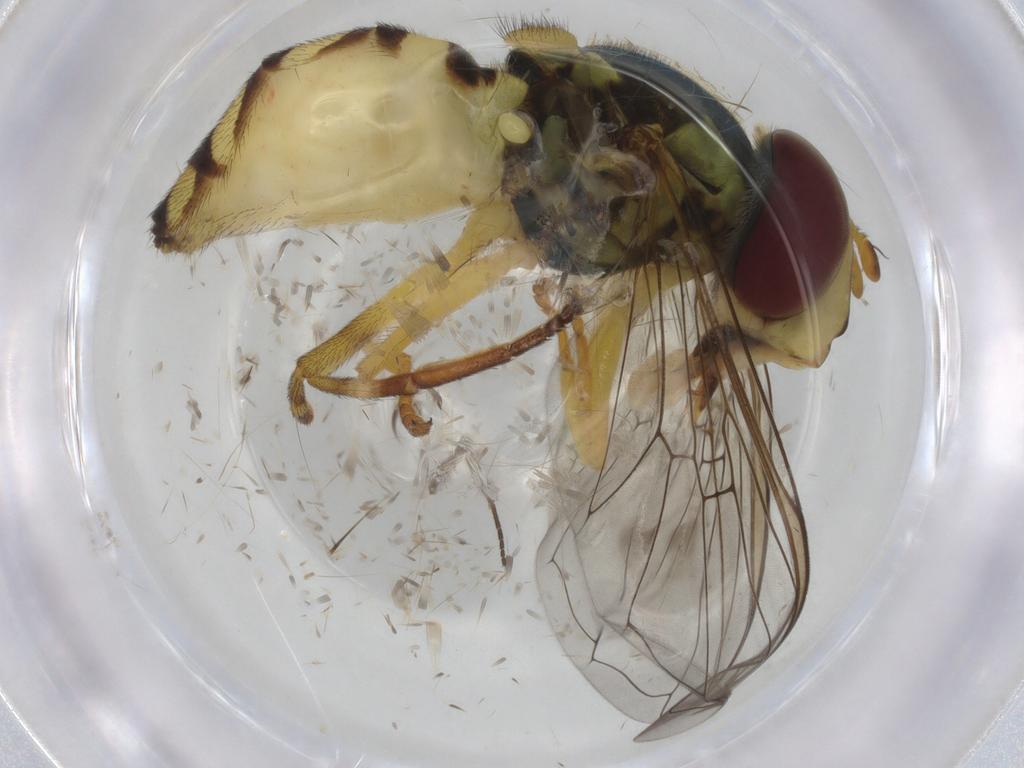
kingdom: Animalia
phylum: Arthropoda
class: Insecta
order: Diptera
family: Syrphidae
